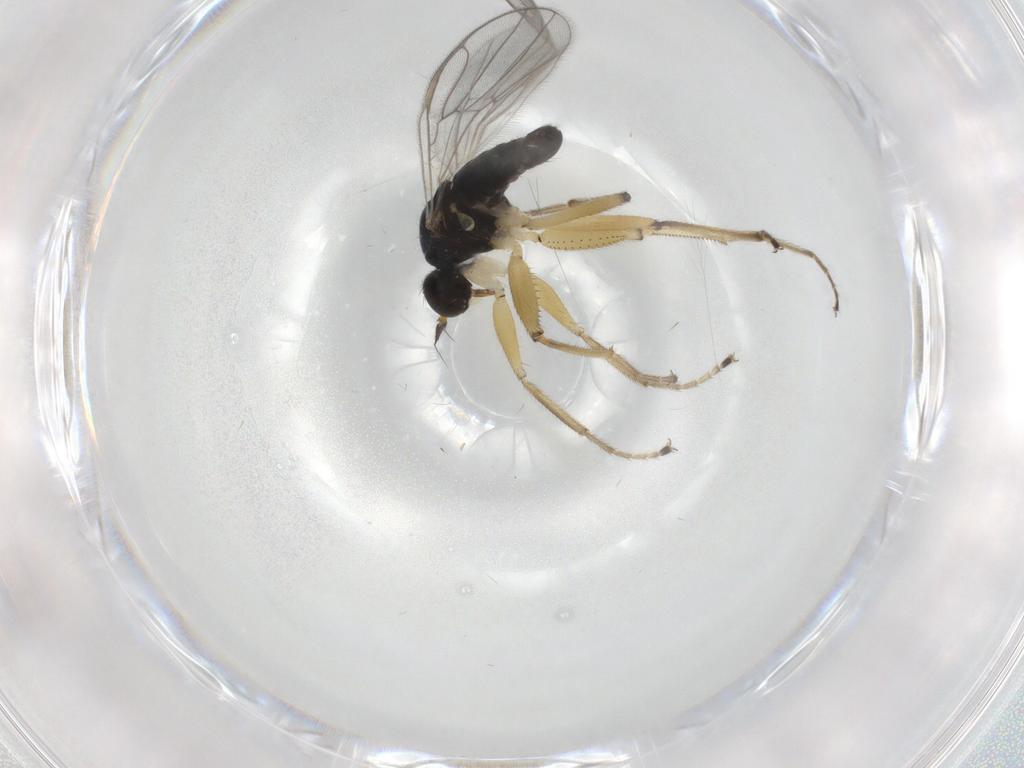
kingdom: Animalia
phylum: Arthropoda
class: Insecta
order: Diptera
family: Hybotidae
